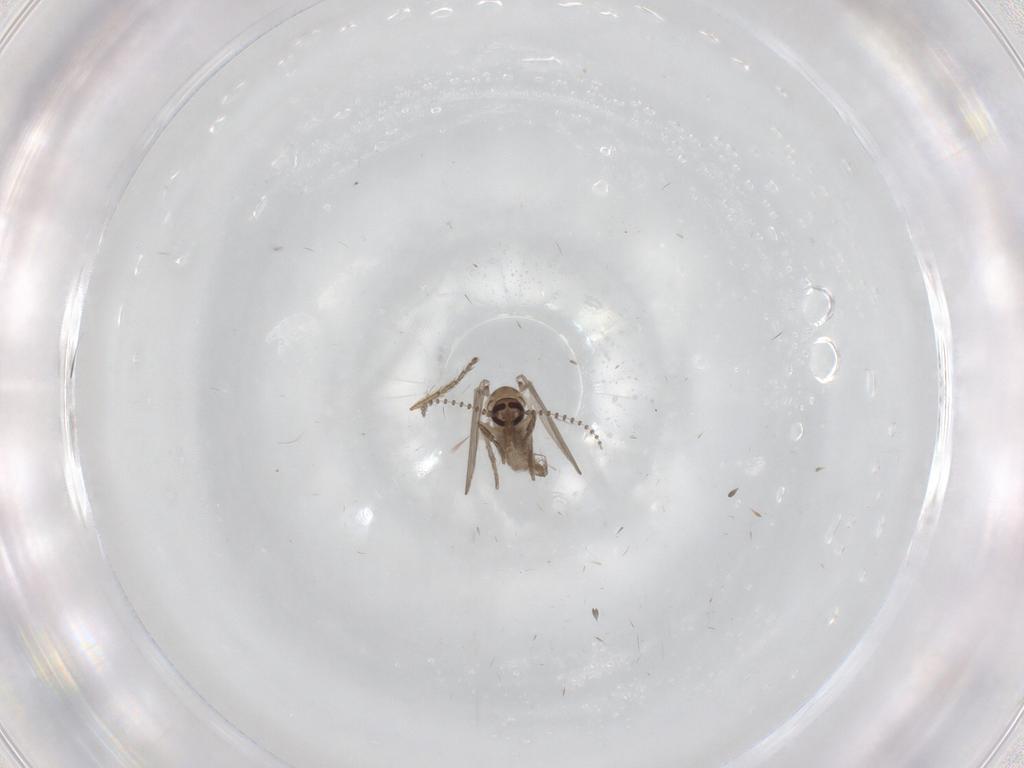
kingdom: Animalia
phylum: Arthropoda
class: Insecta
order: Diptera
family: Ceratopogonidae
